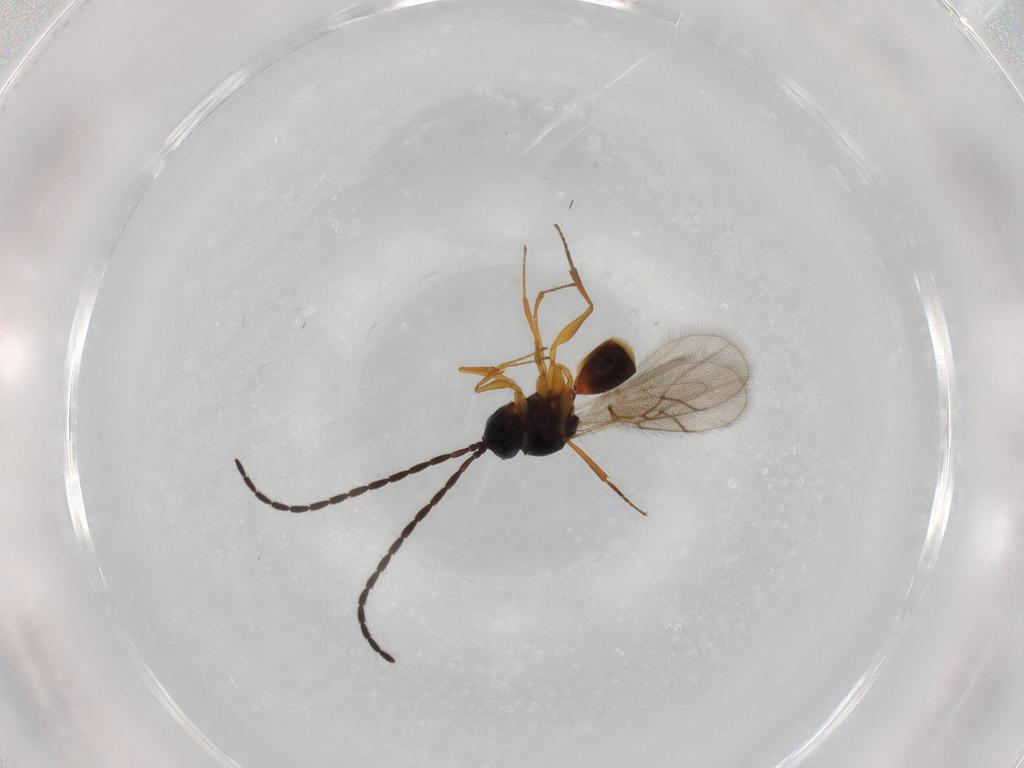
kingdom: Animalia
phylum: Arthropoda
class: Insecta
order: Hymenoptera
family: Figitidae
